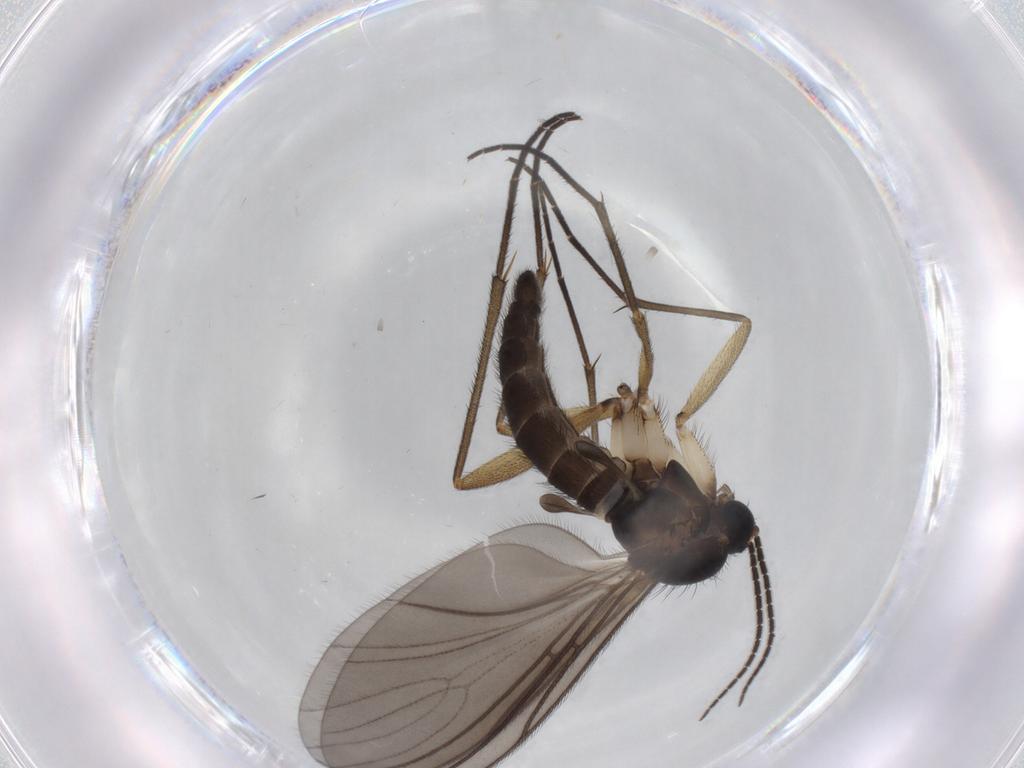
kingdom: Animalia
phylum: Arthropoda
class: Insecta
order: Diptera
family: Sciaridae
